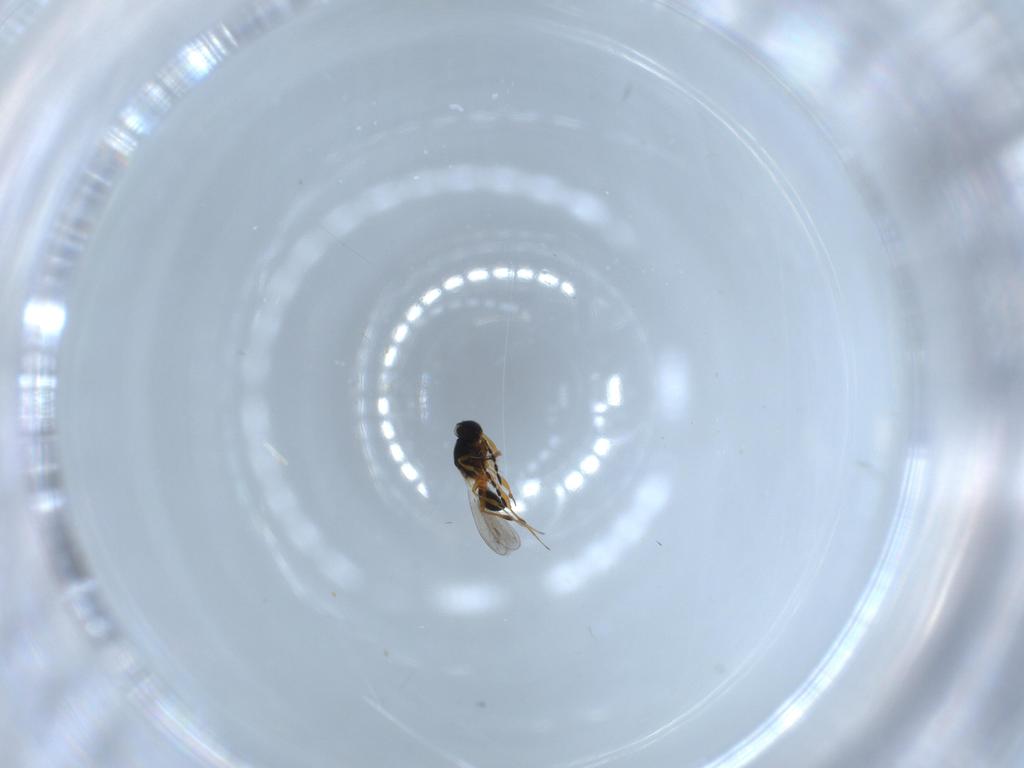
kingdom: Animalia
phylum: Arthropoda
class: Insecta
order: Hymenoptera
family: Platygastridae
